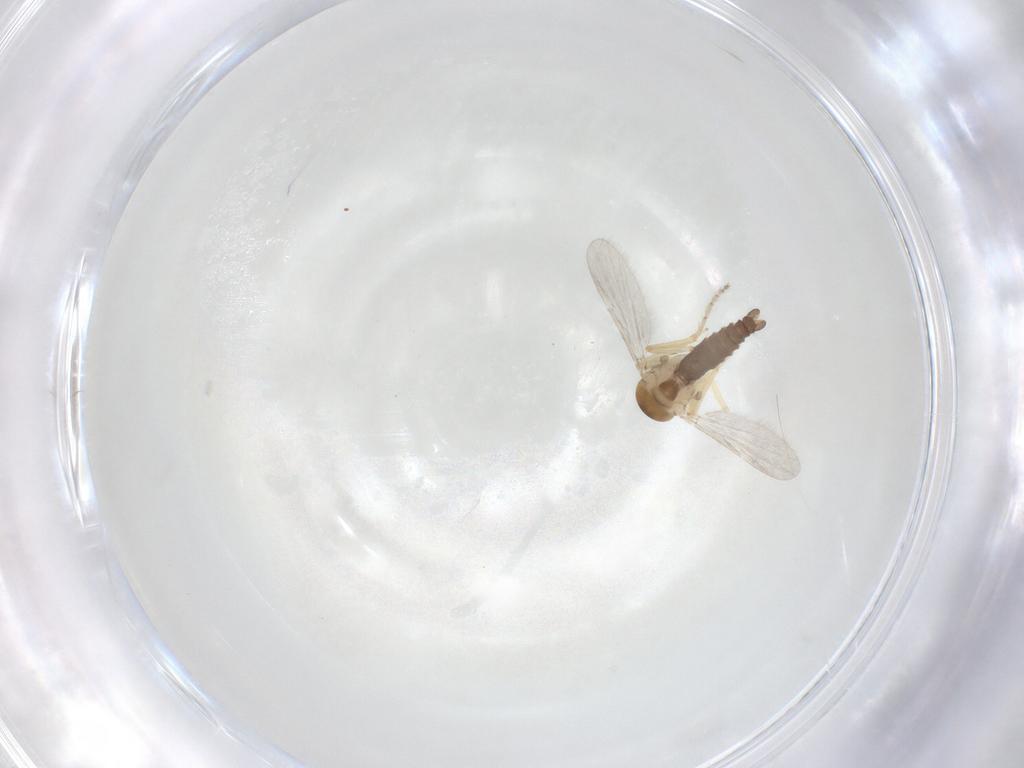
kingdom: Animalia
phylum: Arthropoda
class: Insecta
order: Diptera
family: Ceratopogonidae
